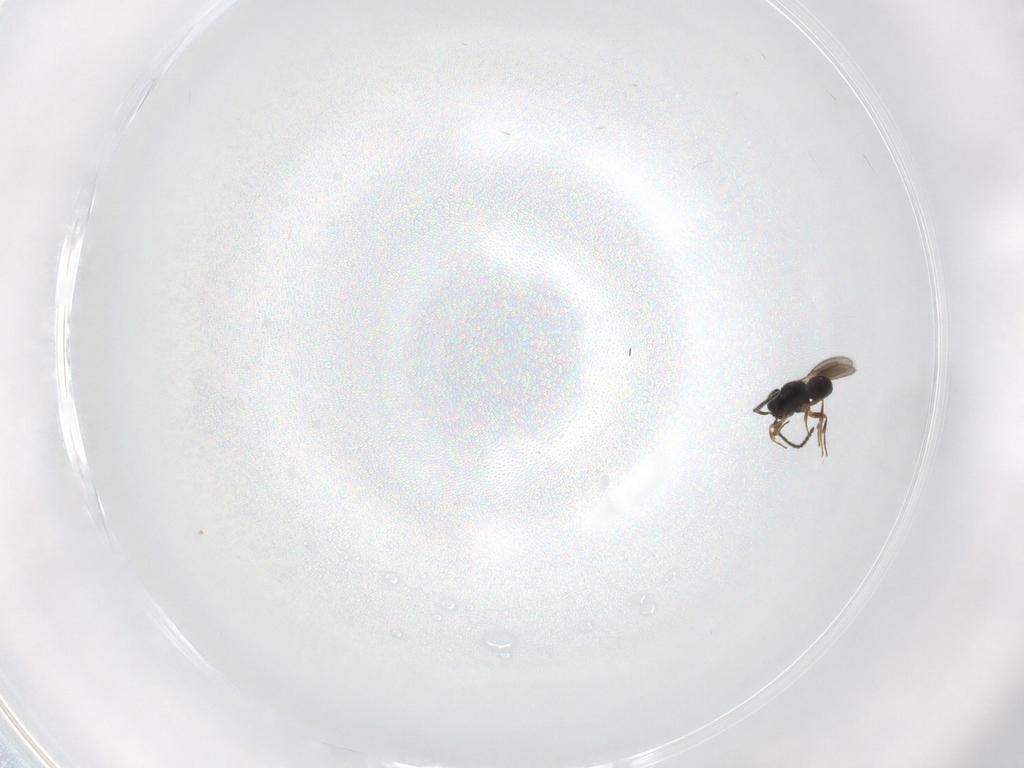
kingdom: Animalia
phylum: Arthropoda
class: Insecta
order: Hymenoptera
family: Scelionidae
